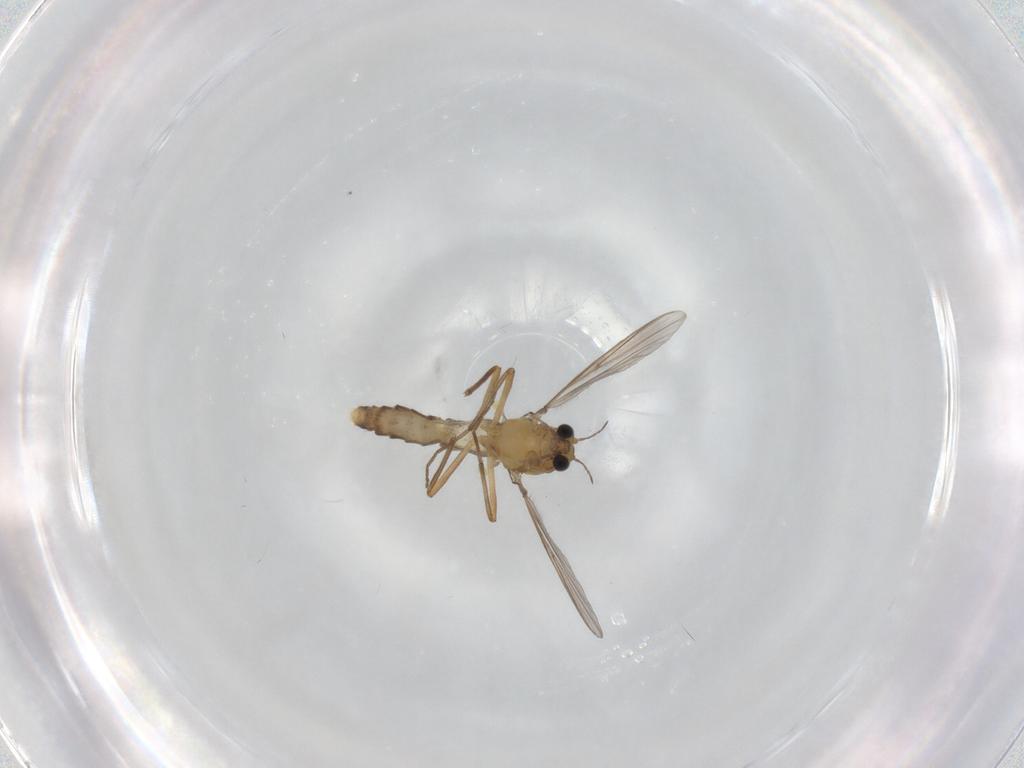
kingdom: Animalia
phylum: Arthropoda
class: Insecta
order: Diptera
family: Chironomidae
